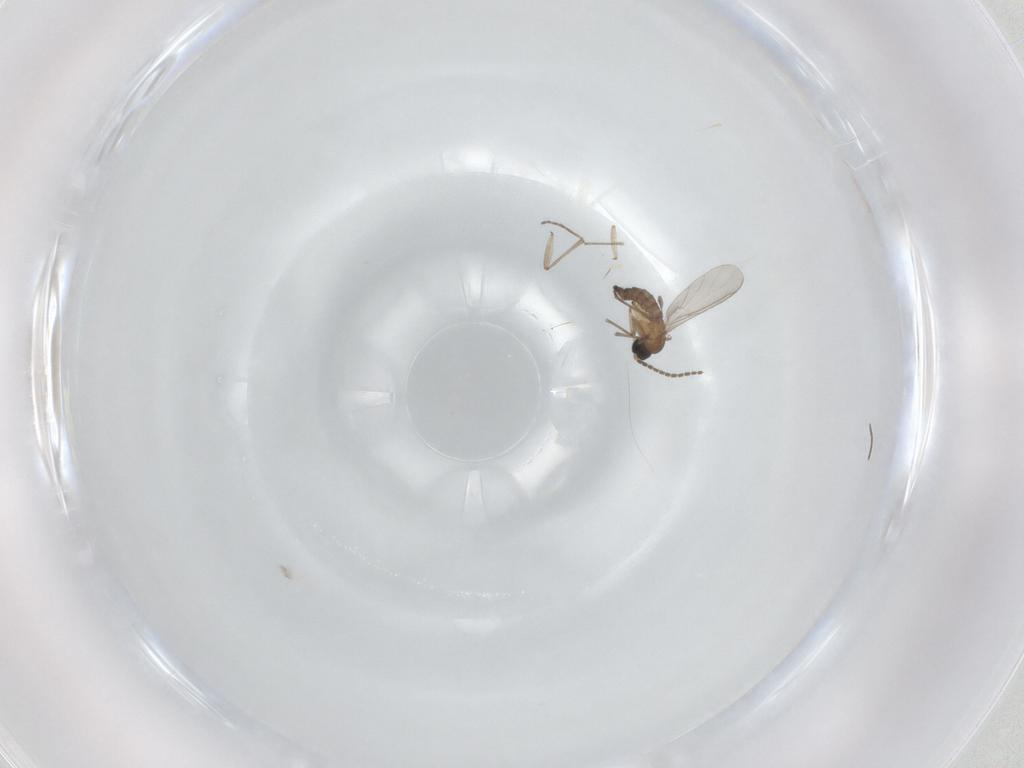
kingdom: Animalia
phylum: Arthropoda
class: Insecta
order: Diptera
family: Sciaridae
